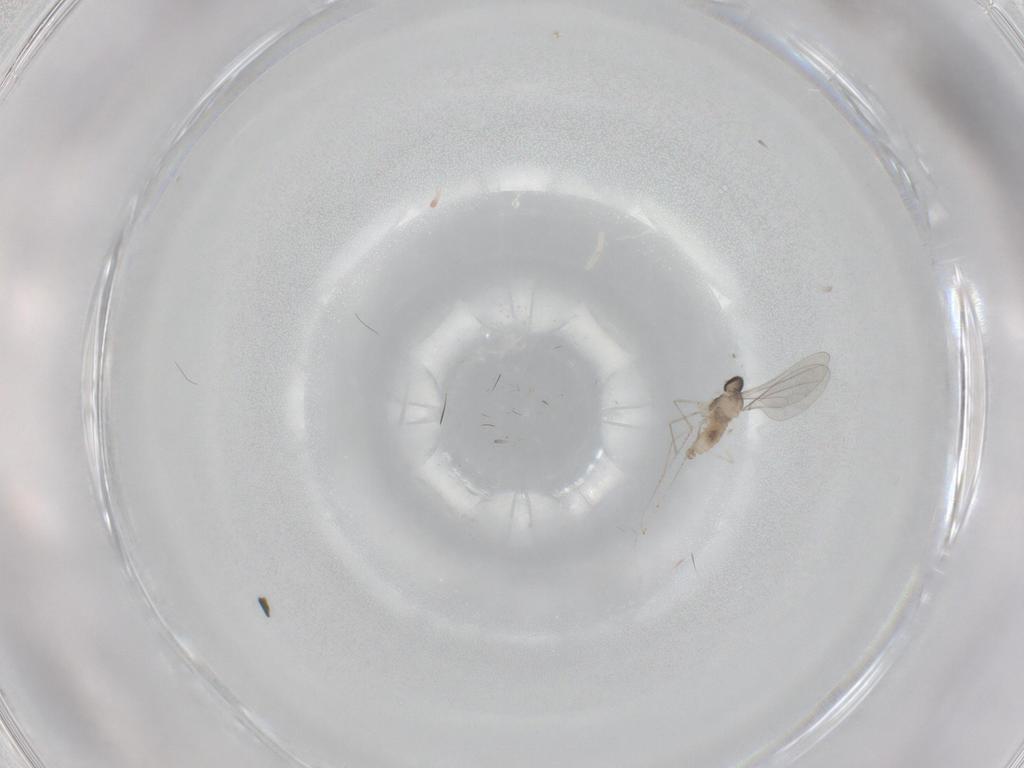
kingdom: Animalia
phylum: Arthropoda
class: Insecta
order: Diptera
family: Cecidomyiidae
